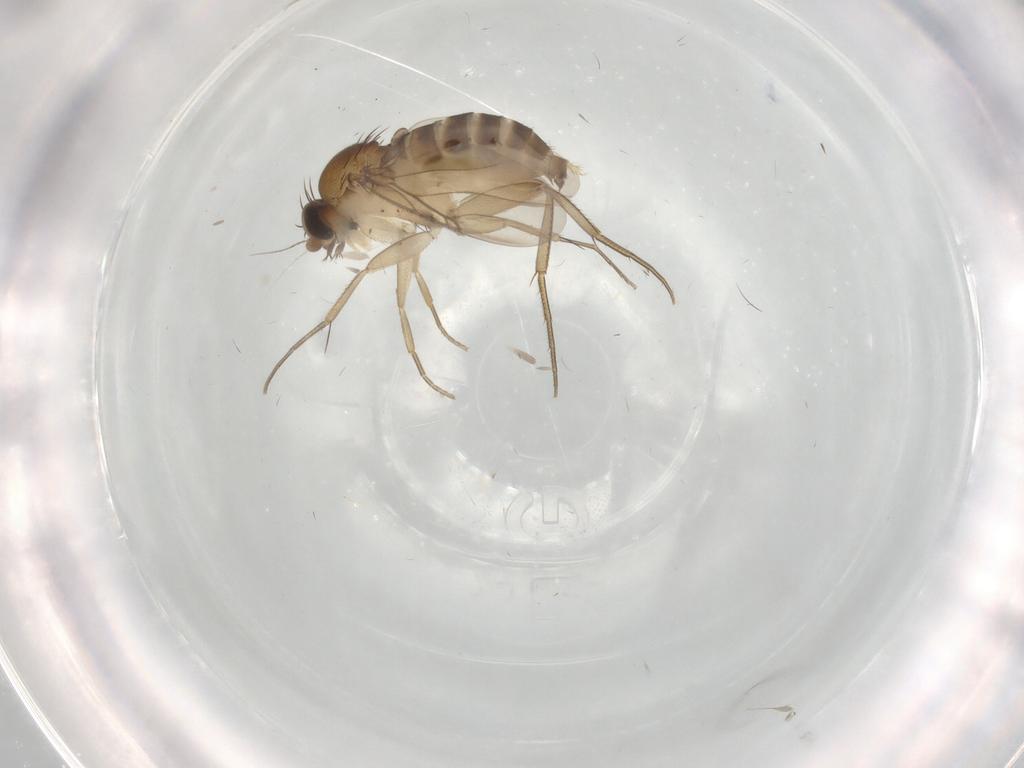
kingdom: Animalia
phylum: Arthropoda
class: Insecta
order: Diptera
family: Phoridae
